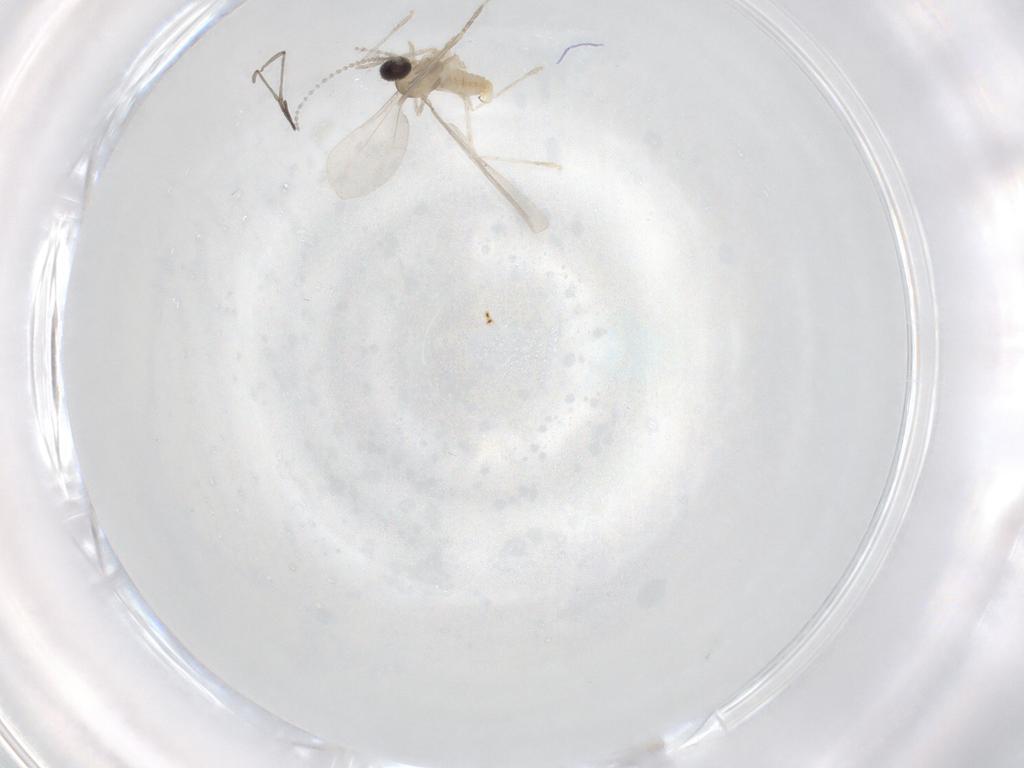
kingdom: Animalia
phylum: Arthropoda
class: Insecta
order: Diptera
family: Cecidomyiidae
